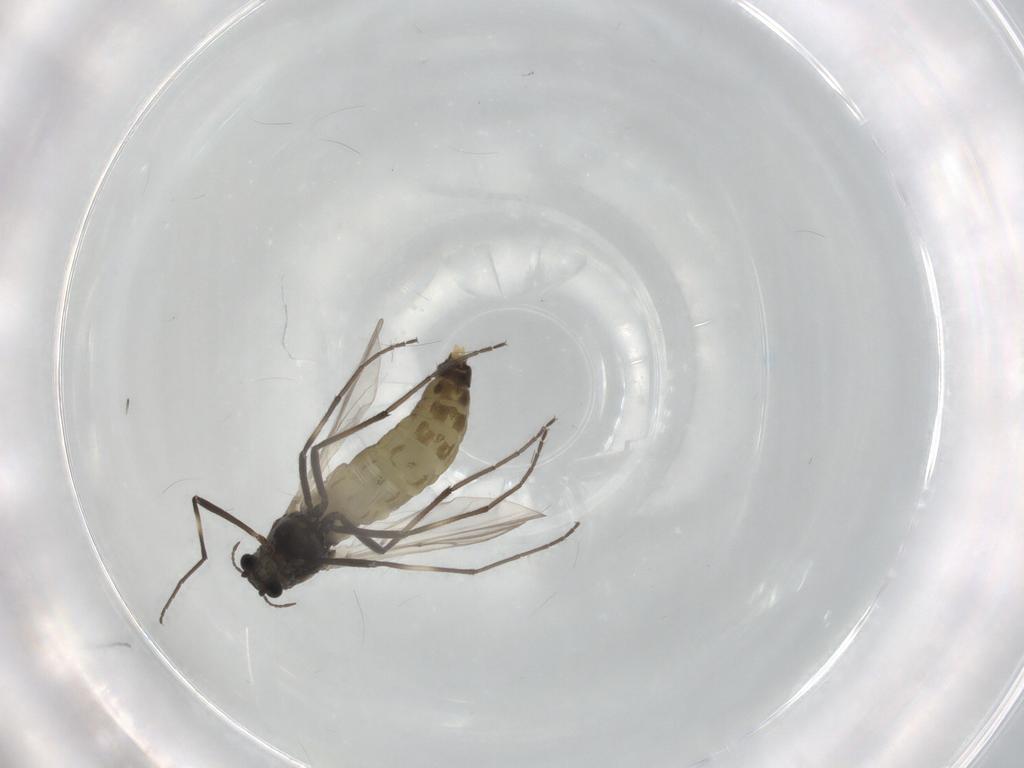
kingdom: Animalia
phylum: Arthropoda
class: Insecta
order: Diptera
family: Chironomidae
